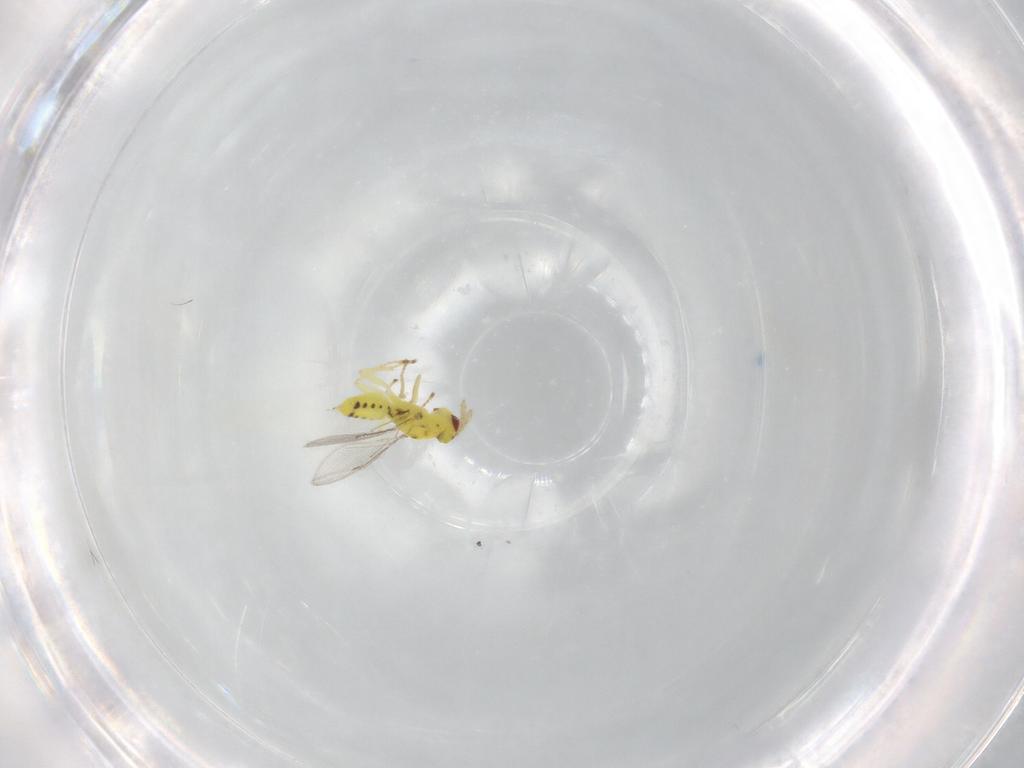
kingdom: Animalia
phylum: Arthropoda
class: Insecta
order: Hymenoptera
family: Eulophidae
